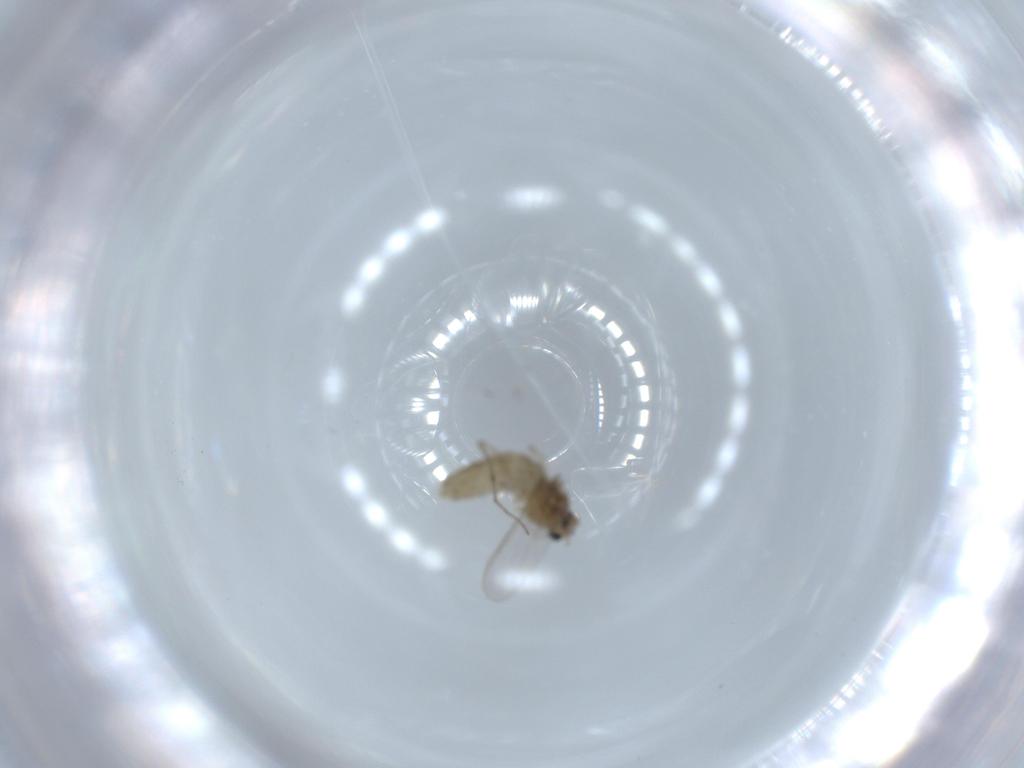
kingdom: Animalia
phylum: Arthropoda
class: Insecta
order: Diptera
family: Chironomidae
